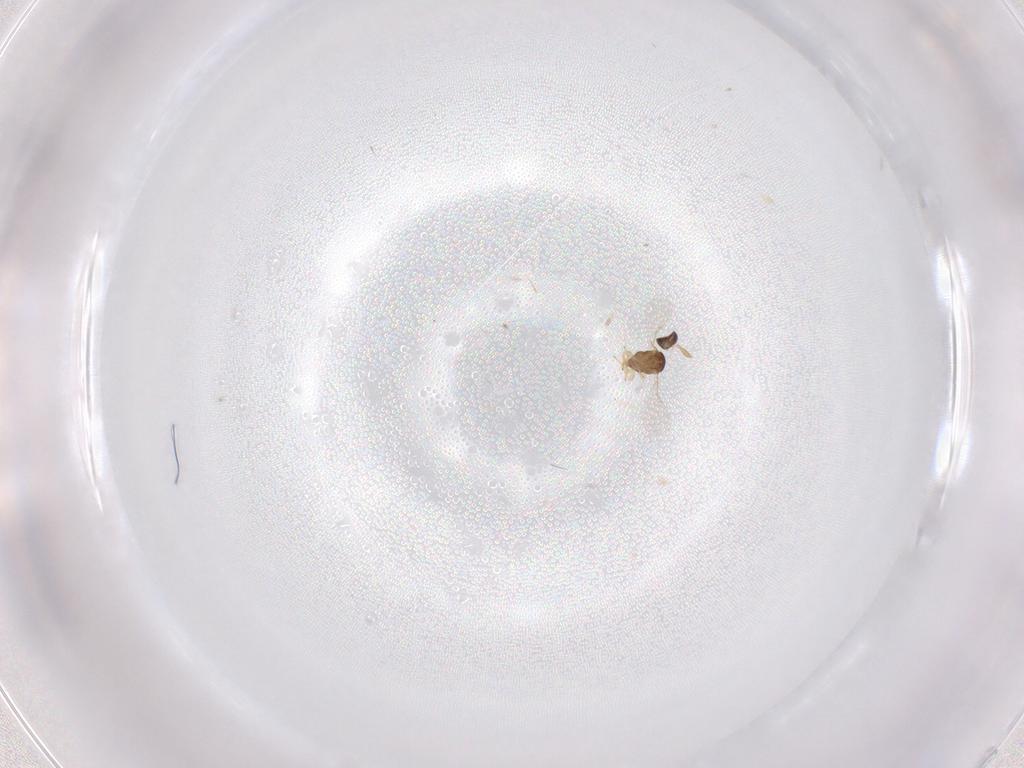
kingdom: Animalia
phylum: Arthropoda
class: Insecta
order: Hymenoptera
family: Encyrtidae
